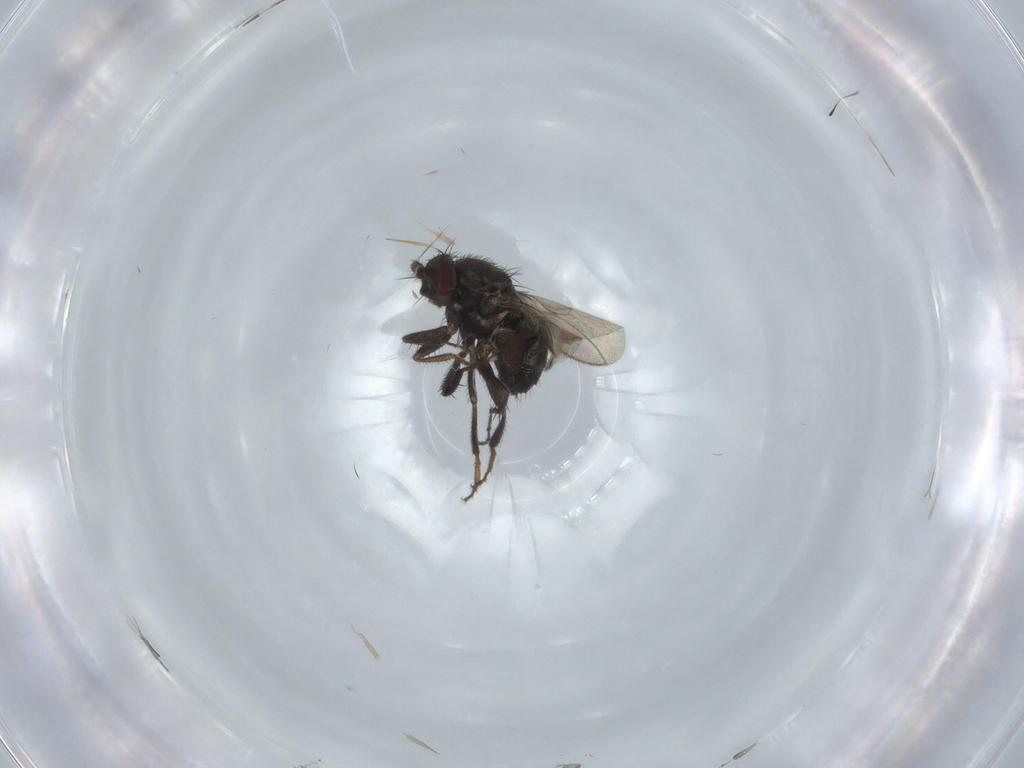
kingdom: Animalia
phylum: Arthropoda
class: Insecta
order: Diptera
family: Sphaeroceridae
